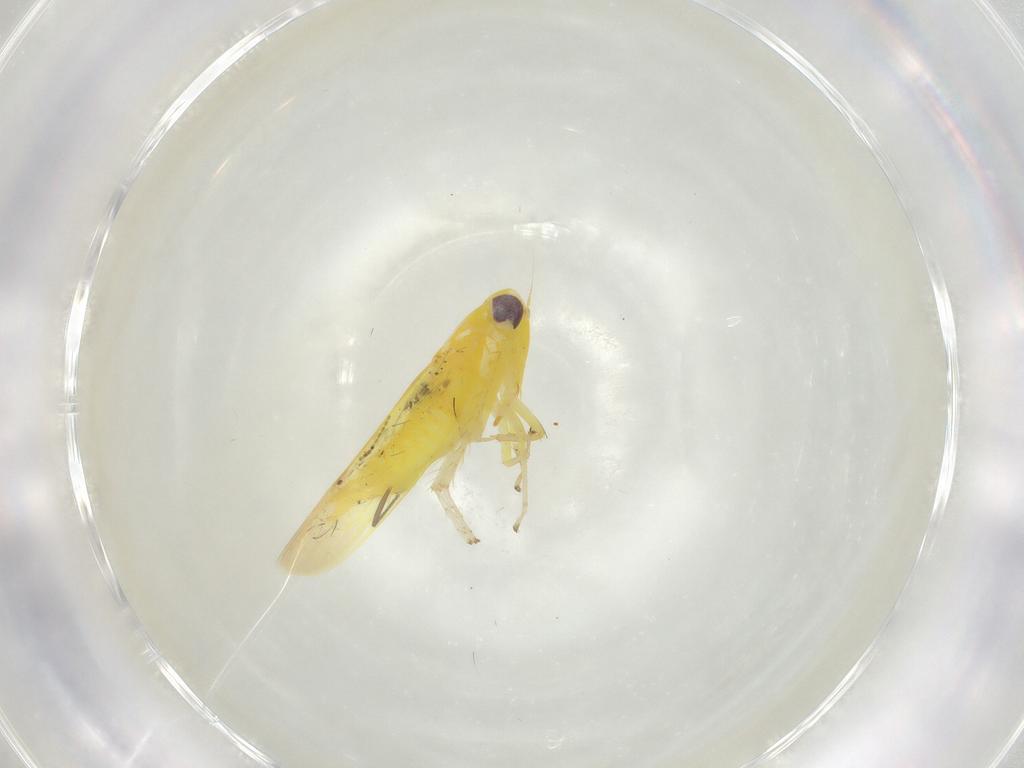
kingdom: Animalia
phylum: Arthropoda
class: Insecta
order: Hemiptera
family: Cicadellidae
